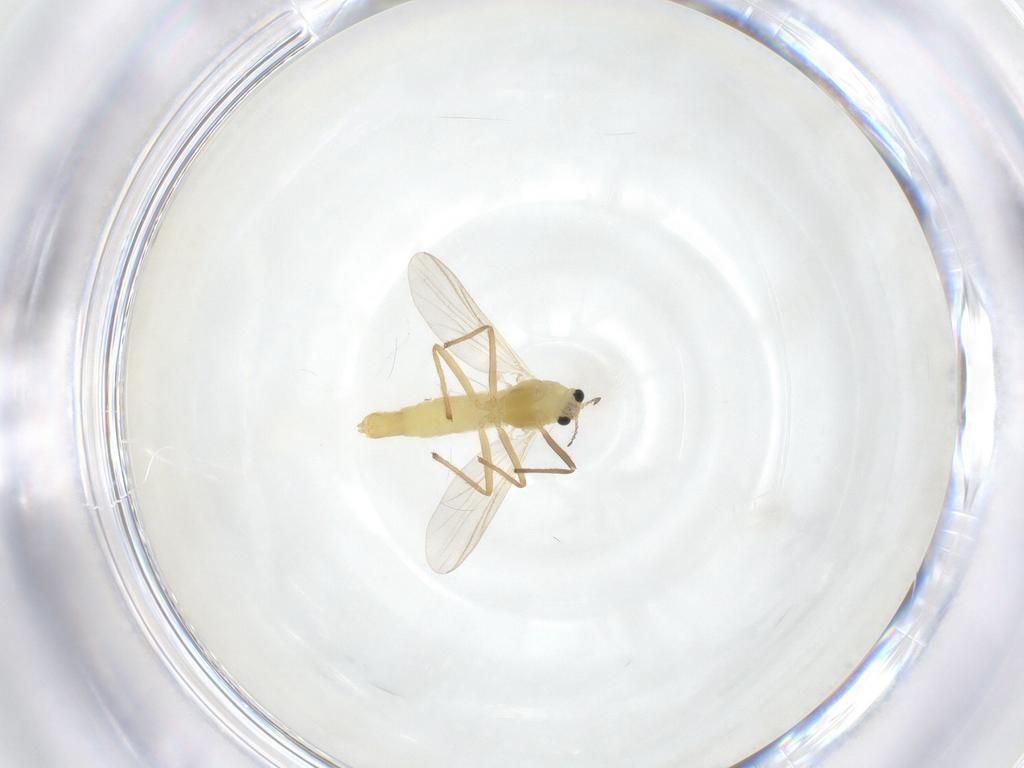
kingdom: Animalia
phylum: Arthropoda
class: Insecta
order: Diptera
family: Chironomidae
